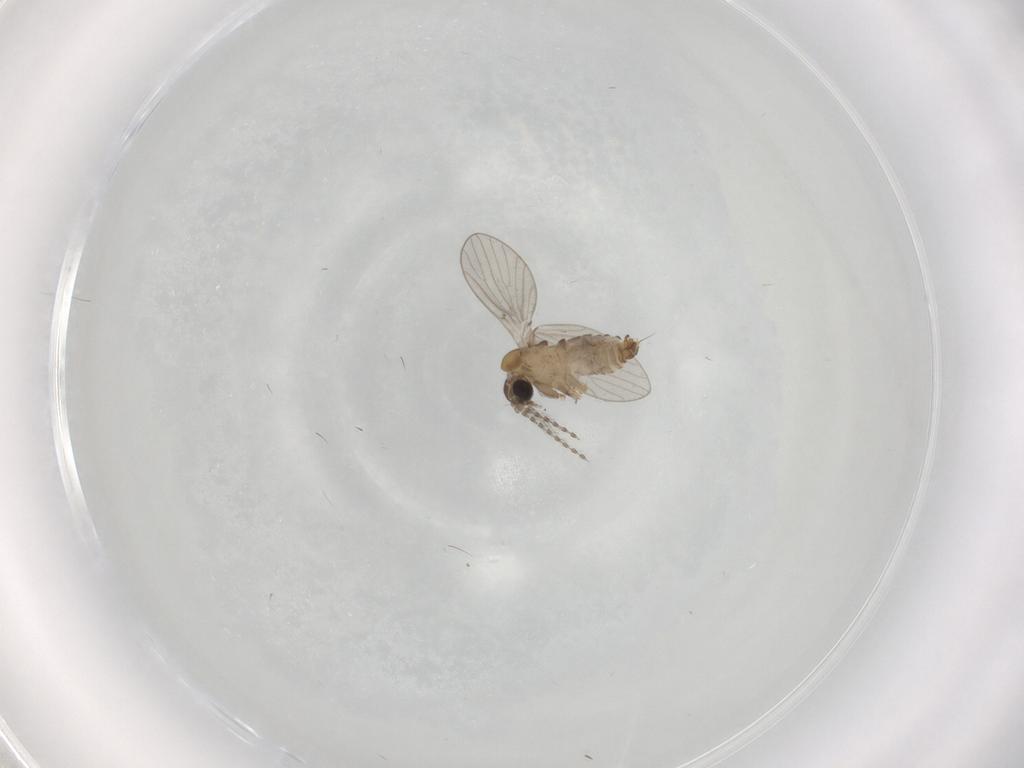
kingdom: Animalia
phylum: Arthropoda
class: Insecta
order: Diptera
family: Psychodidae
